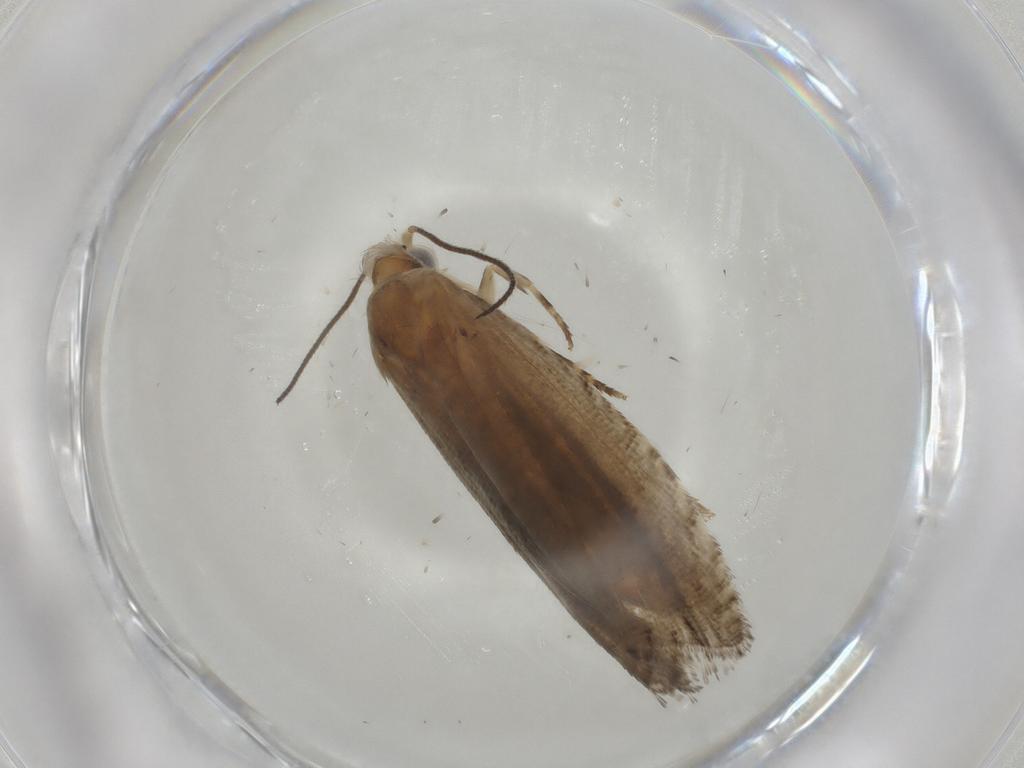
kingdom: Animalia
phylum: Arthropoda
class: Insecta
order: Lepidoptera
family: Tortricidae
